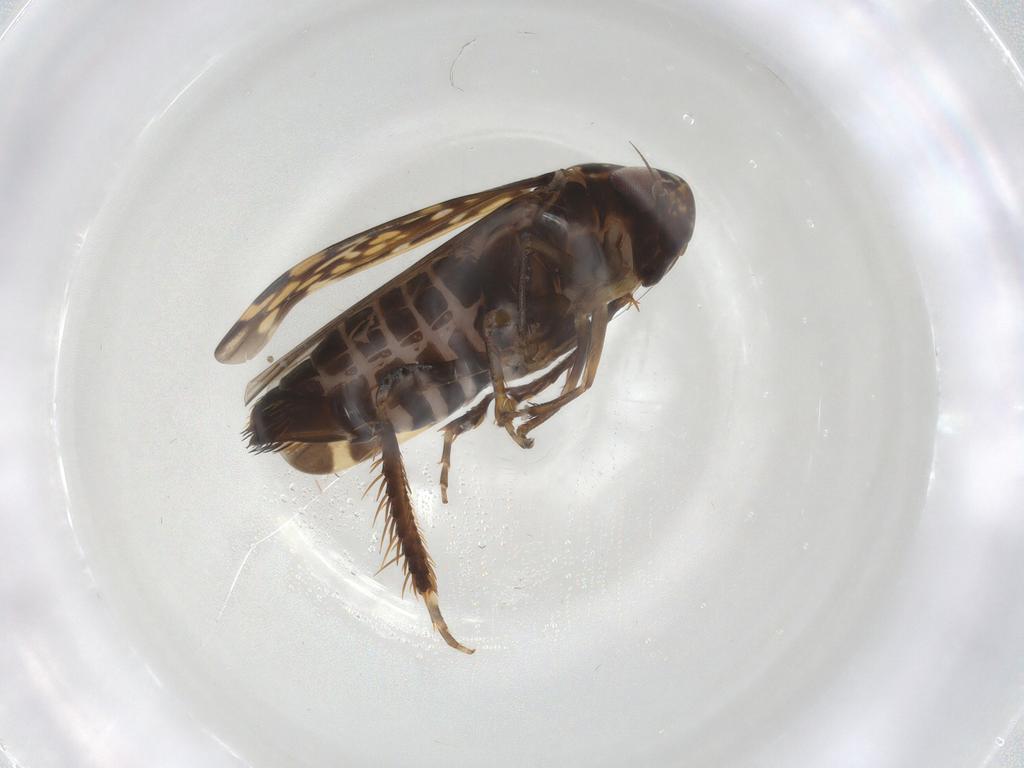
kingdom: Animalia
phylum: Arthropoda
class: Insecta
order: Hemiptera
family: Cicadellidae
